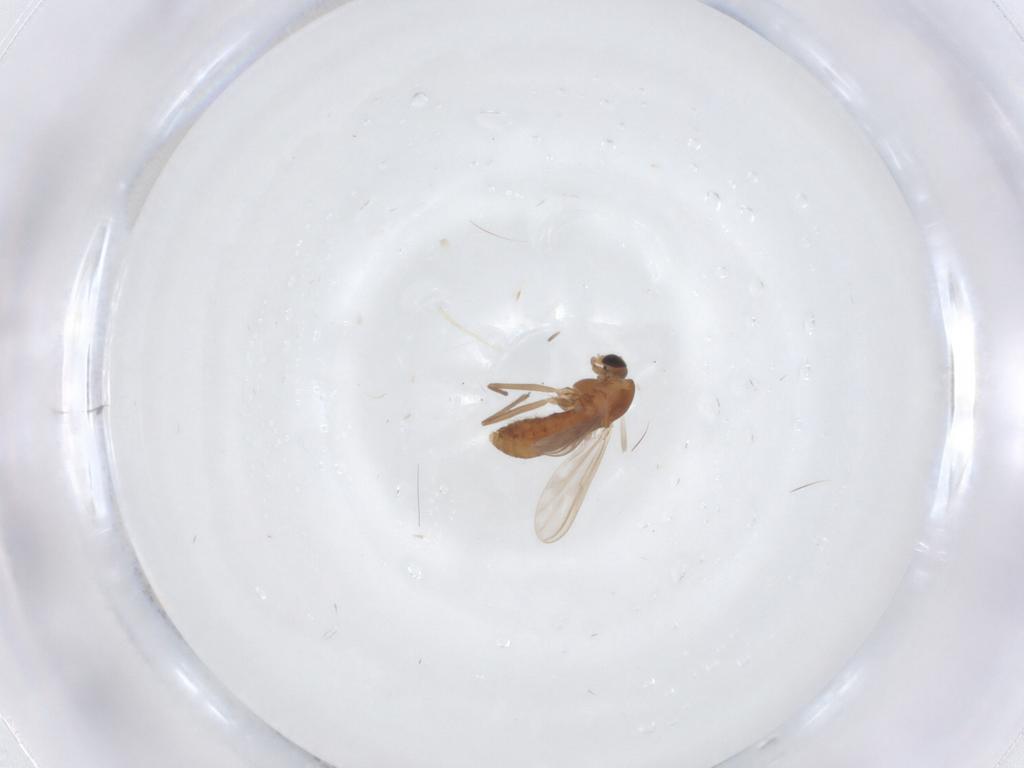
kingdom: Animalia
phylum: Arthropoda
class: Insecta
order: Diptera
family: Chironomidae
